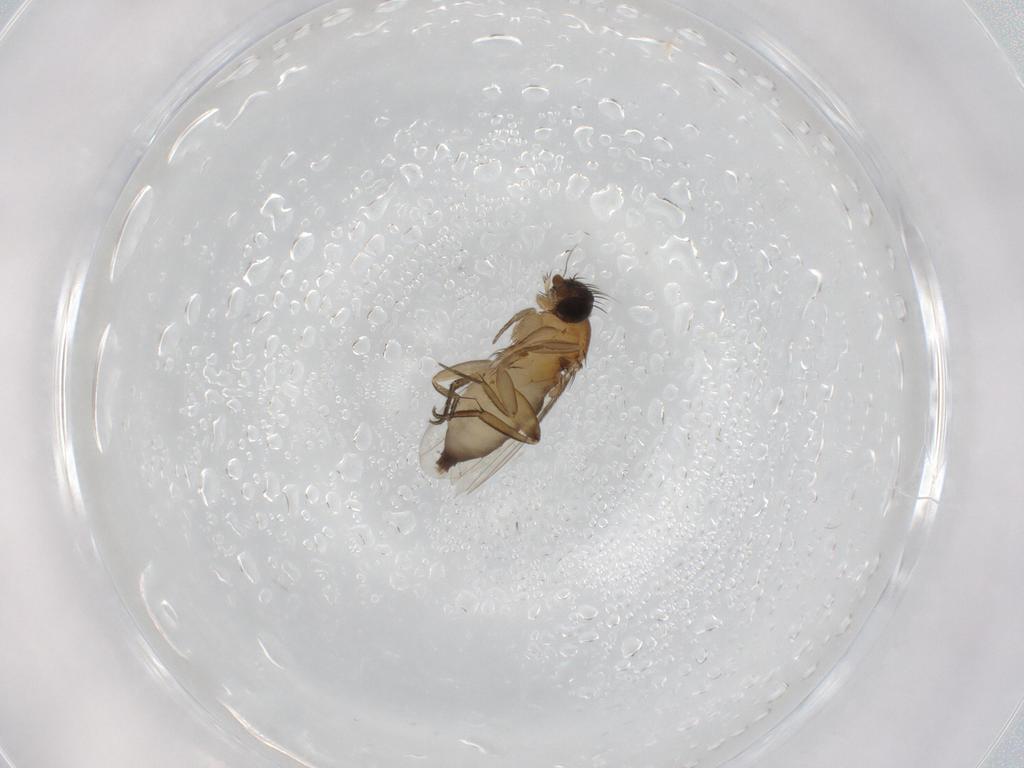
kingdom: Animalia
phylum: Arthropoda
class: Insecta
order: Diptera
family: Phoridae
